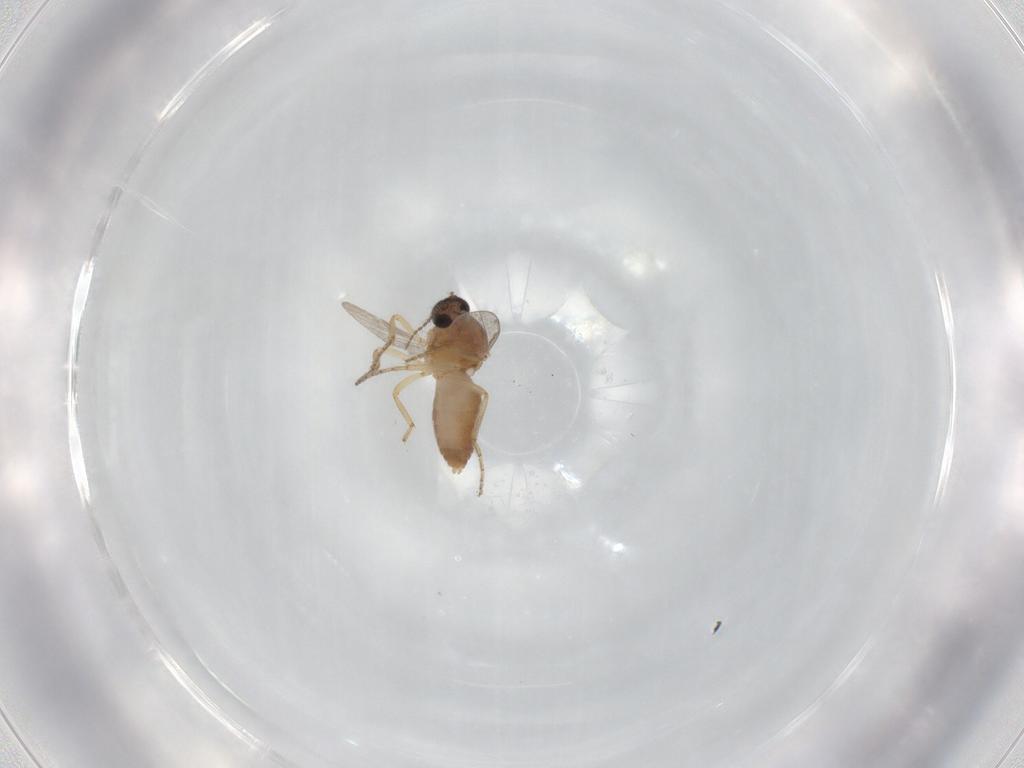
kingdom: Animalia
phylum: Arthropoda
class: Insecta
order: Diptera
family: Ceratopogonidae
